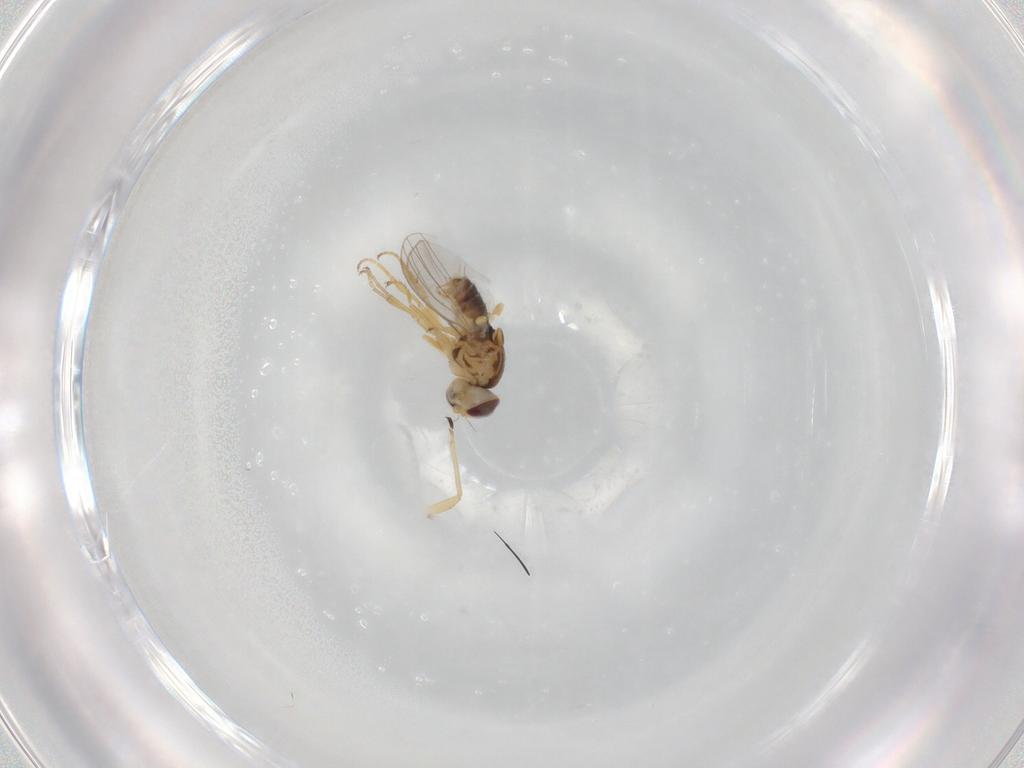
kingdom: Animalia
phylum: Arthropoda
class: Insecta
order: Diptera
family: Chyromyidae
